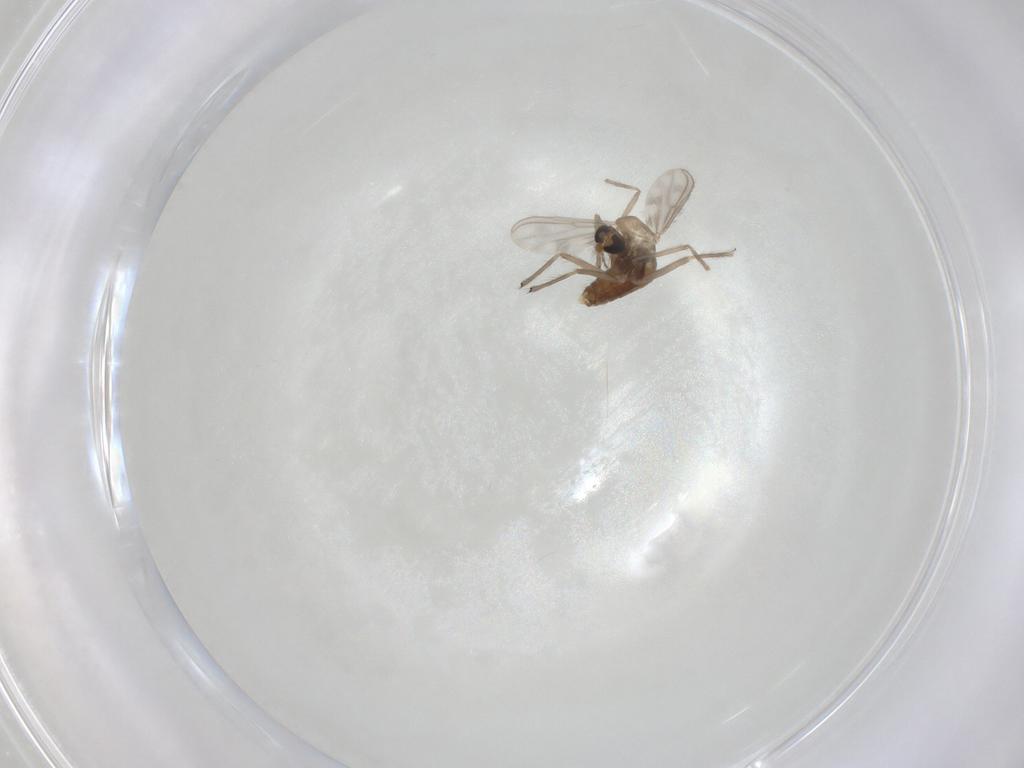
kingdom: Animalia
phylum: Arthropoda
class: Insecta
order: Diptera
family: Chironomidae
